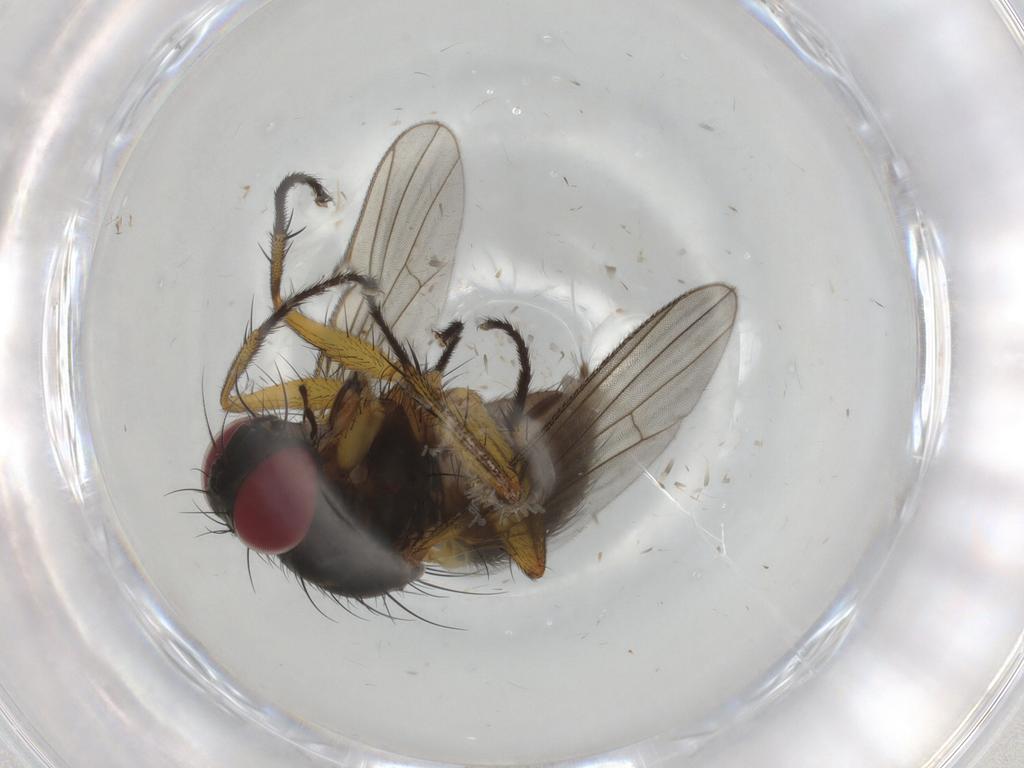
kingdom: Animalia
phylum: Arthropoda
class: Insecta
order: Diptera
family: Muscidae
